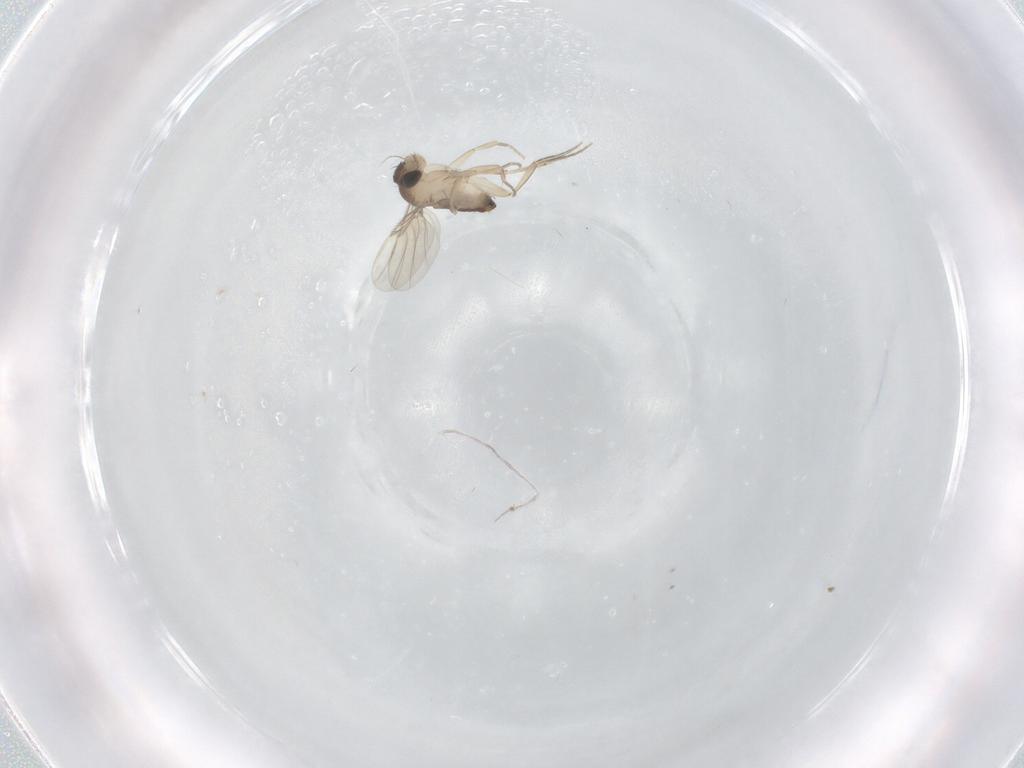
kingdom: Animalia
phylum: Arthropoda
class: Insecta
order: Diptera
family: Phoridae
